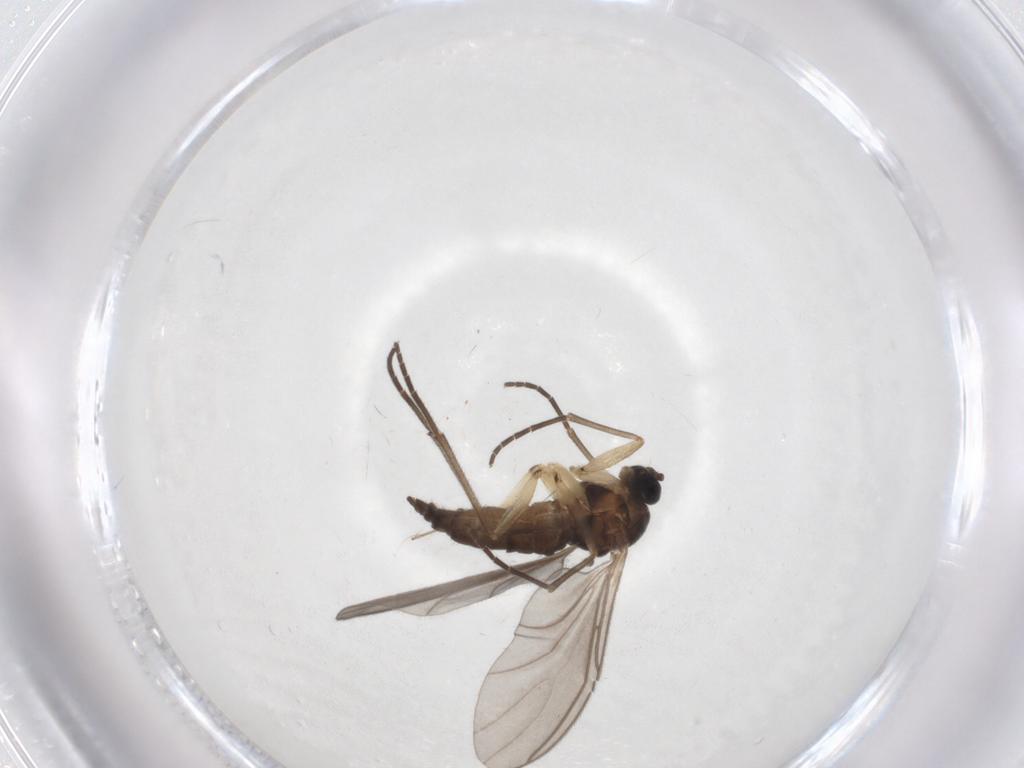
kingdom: Animalia
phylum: Arthropoda
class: Insecta
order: Diptera
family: Sciaridae
